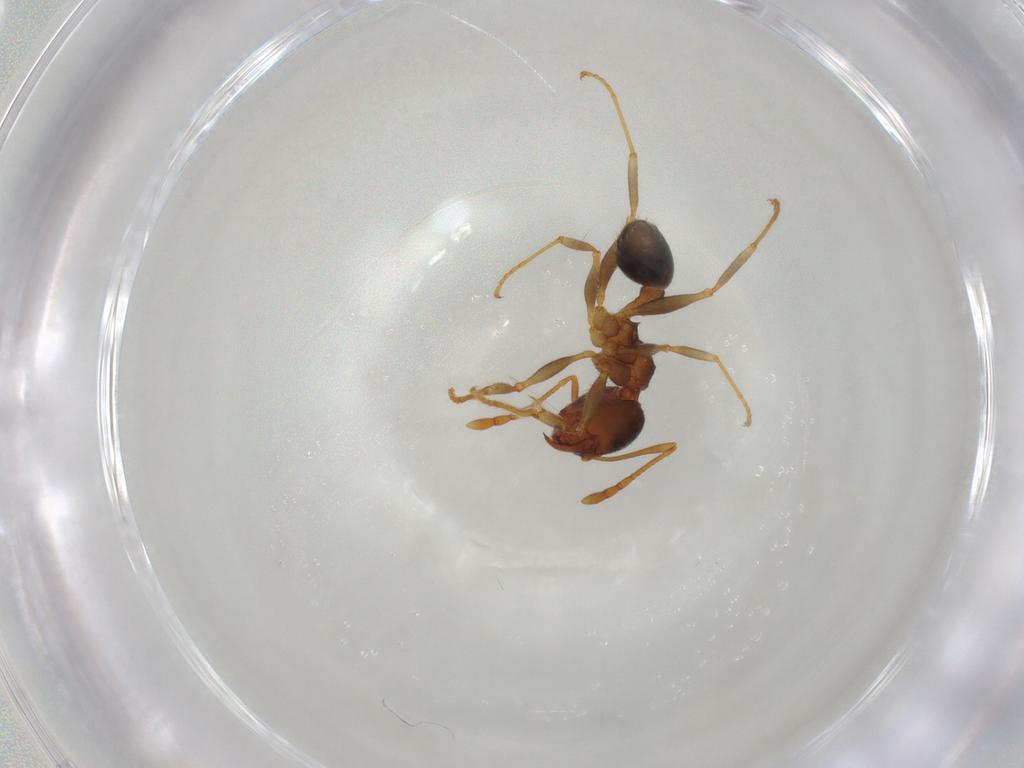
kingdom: Animalia
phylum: Arthropoda
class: Insecta
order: Hymenoptera
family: Formicidae
